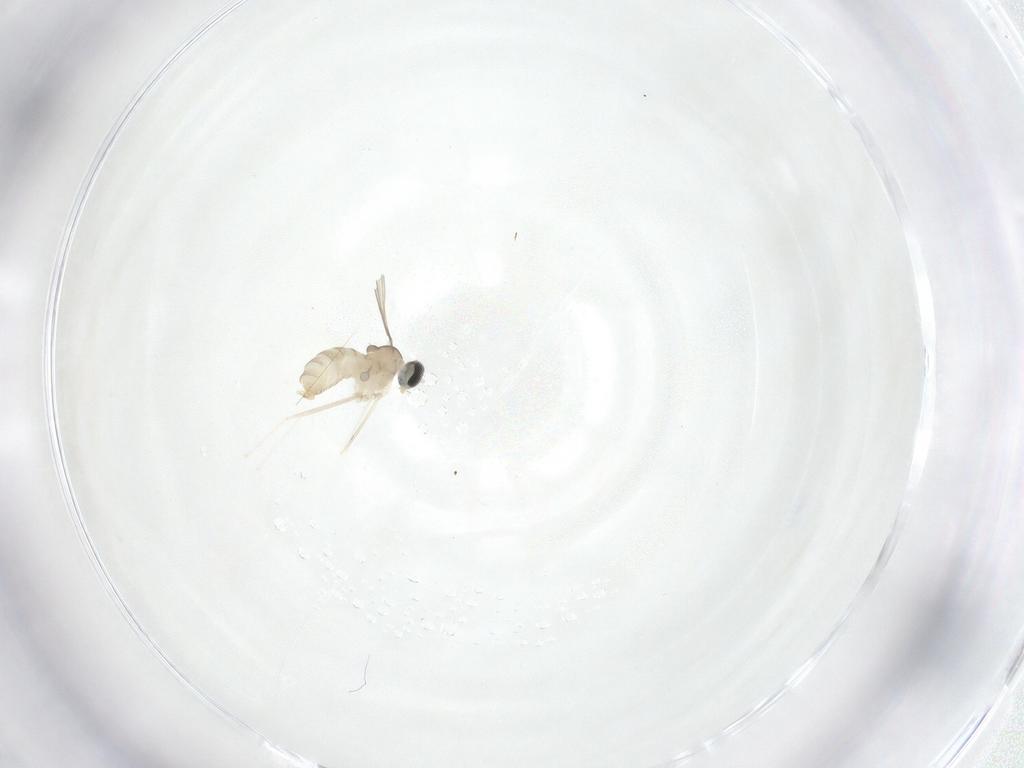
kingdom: Animalia
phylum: Arthropoda
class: Insecta
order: Diptera
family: Cecidomyiidae
